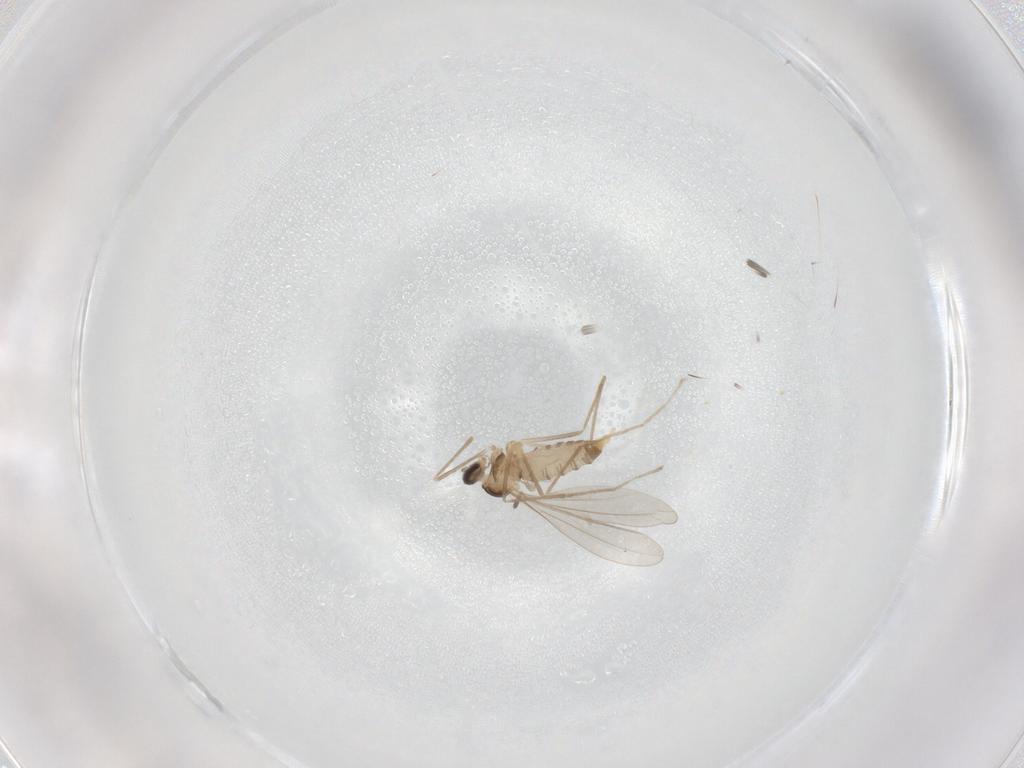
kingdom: Animalia
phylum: Arthropoda
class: Insecta
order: Diptera
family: Cecidomyiidae
